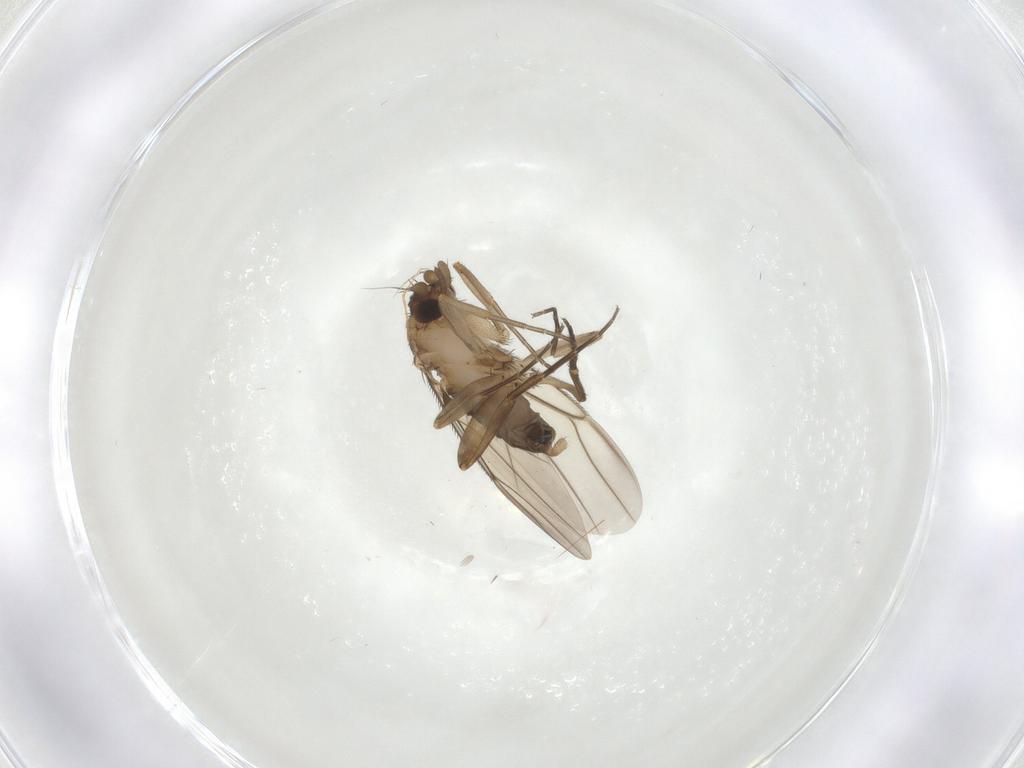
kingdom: Animalia
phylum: Arthropoda
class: Insecta
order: Diptera
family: Phoridae
